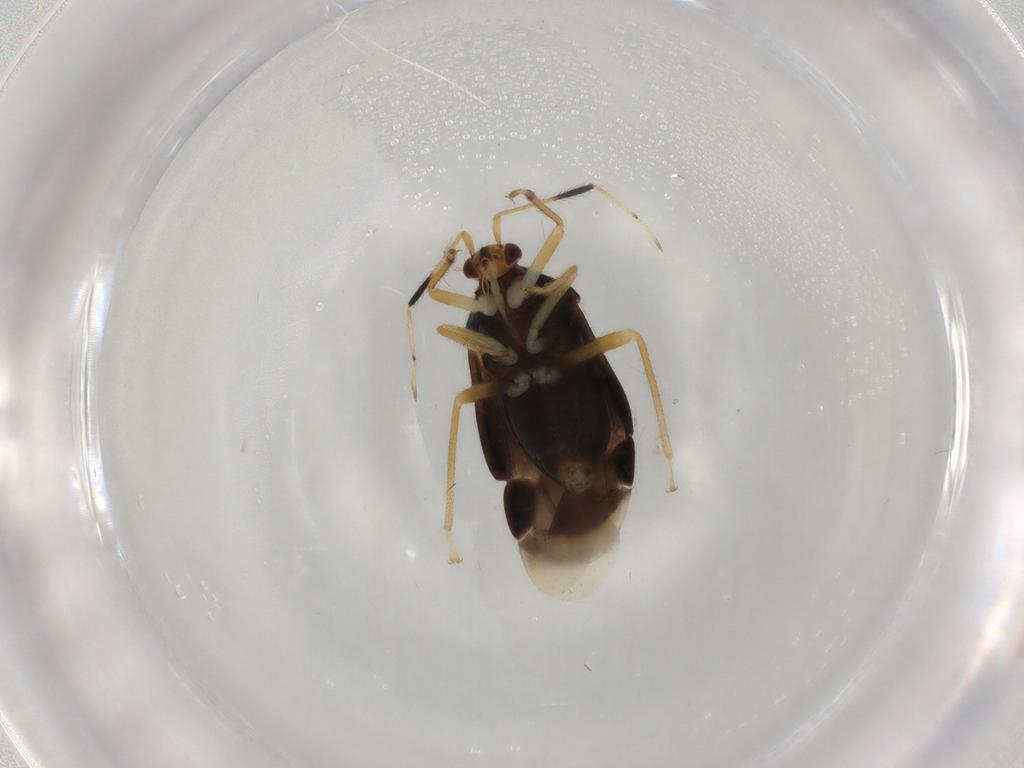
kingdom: Animalia
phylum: Arthropoda
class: Insecta
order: Hemiptera
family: Miridae
